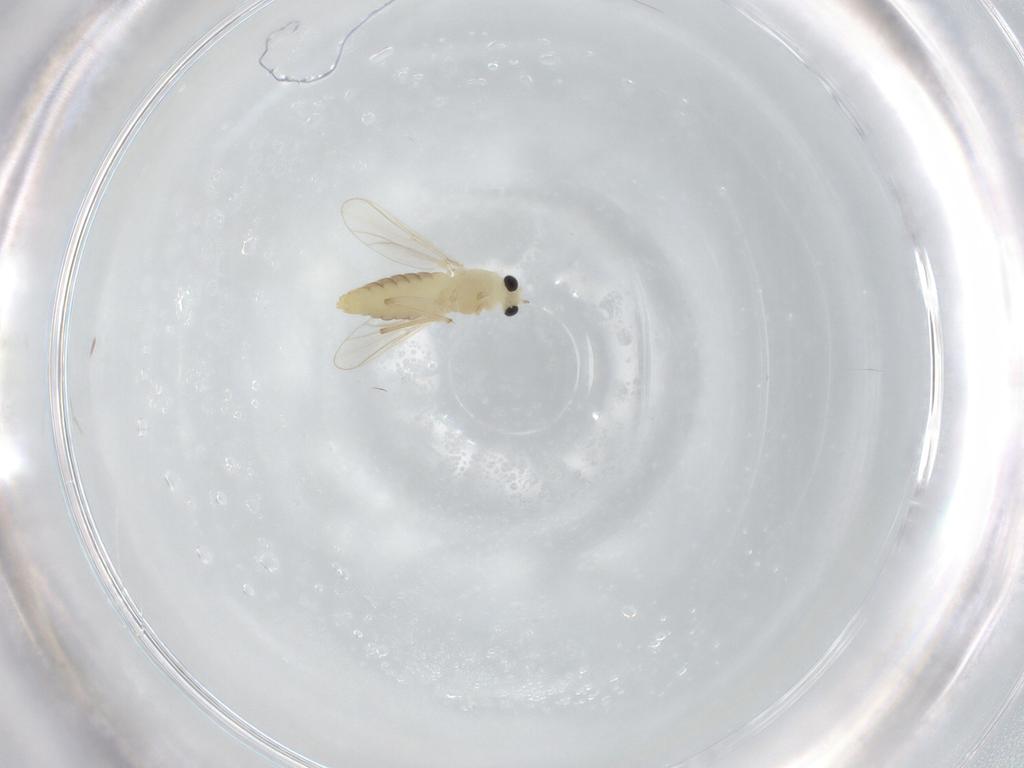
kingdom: Animalia
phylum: Arthropoda
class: Insecta
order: Diptera
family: Chironomidae
